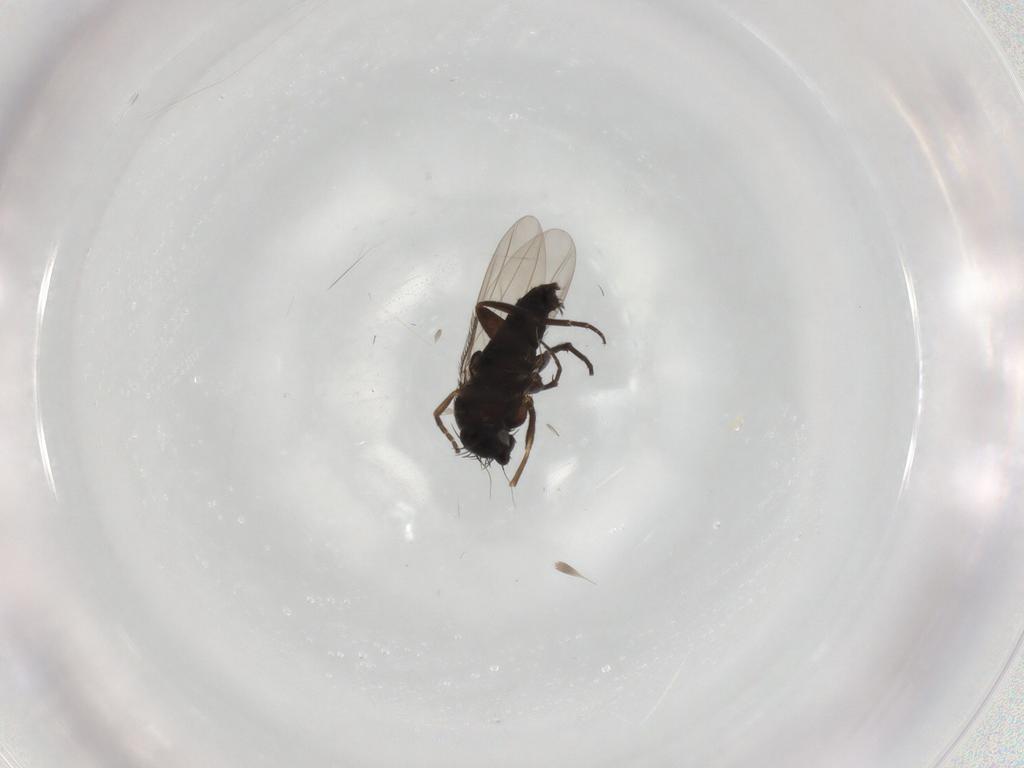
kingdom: Animalia
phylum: Arthropoda
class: Insecta
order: Diptera
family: Phoridae
